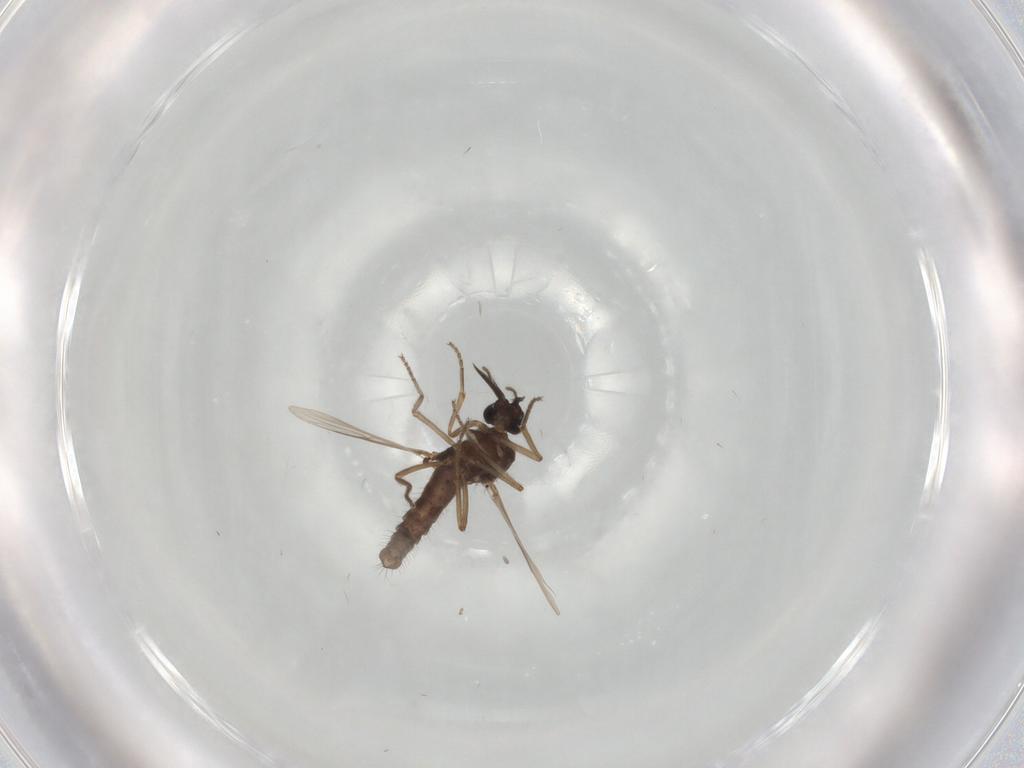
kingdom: Animalia
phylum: Arthropoda
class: Insecta
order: Diptera
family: Ceratopogonidae
